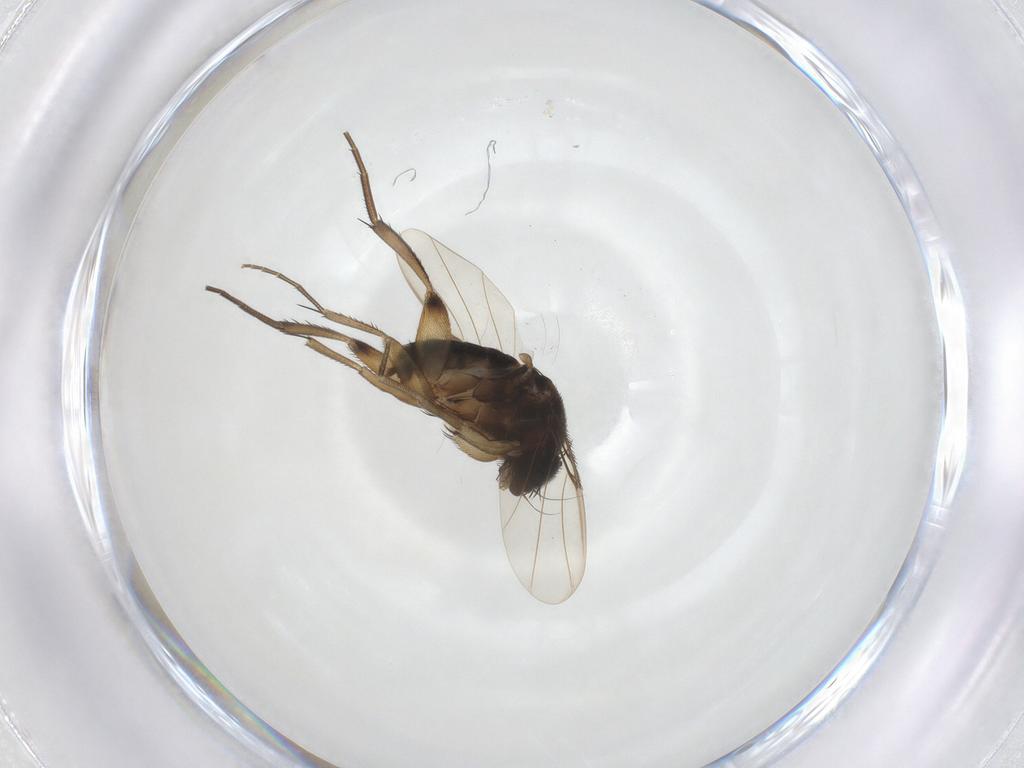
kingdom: Animalia
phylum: Arthropoda
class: Insecta
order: Diptera
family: Phoridae
